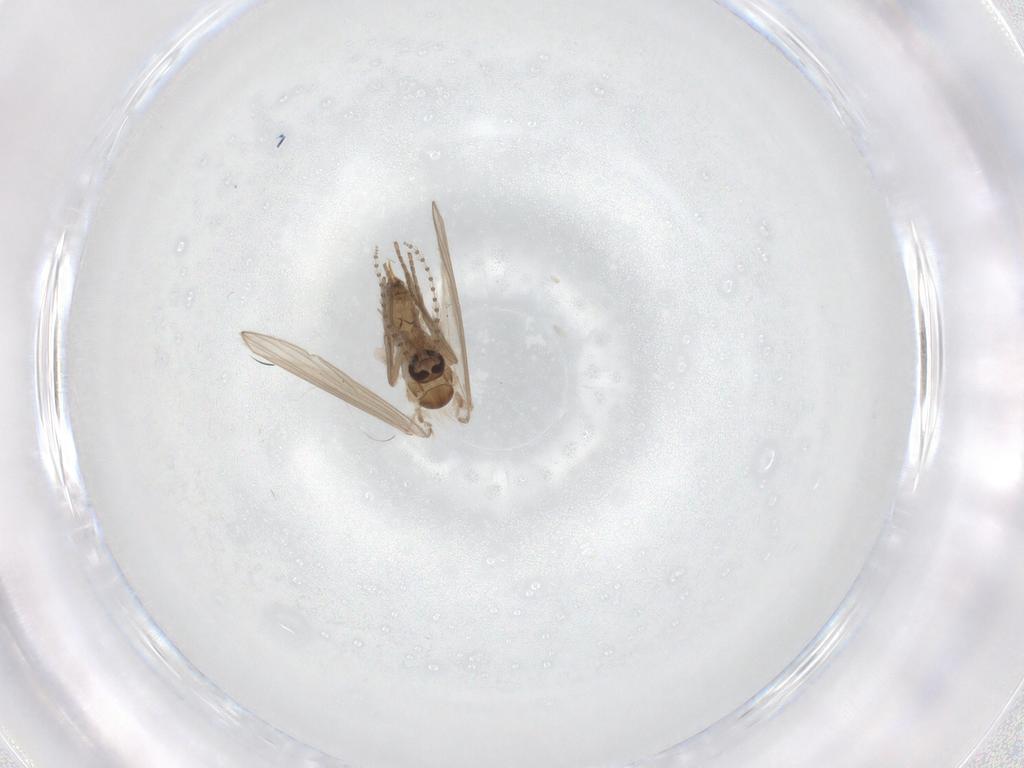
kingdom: Animalia
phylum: Arthropoda
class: Insecta
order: Diptera
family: Psychodidae
